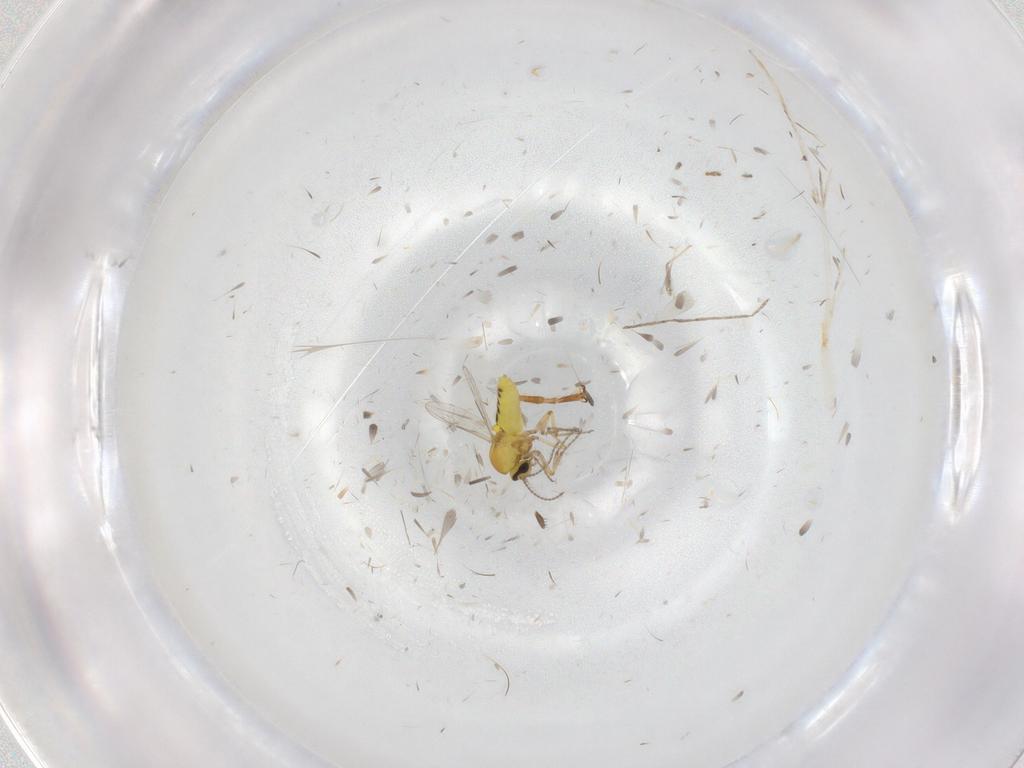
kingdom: Animalia
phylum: Arthropoda
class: Insecta
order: Diptera
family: Ceratopogonidae
